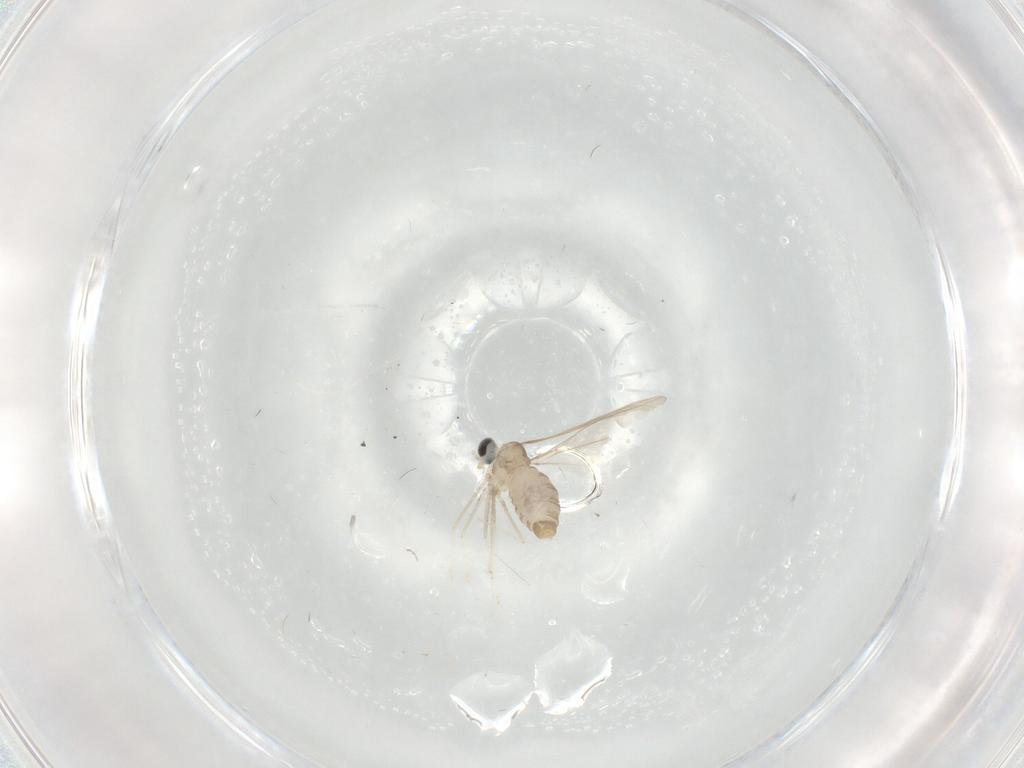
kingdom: Animalia
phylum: Arthropoda
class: Insecta
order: Diptera
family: Cecidomyiidae
